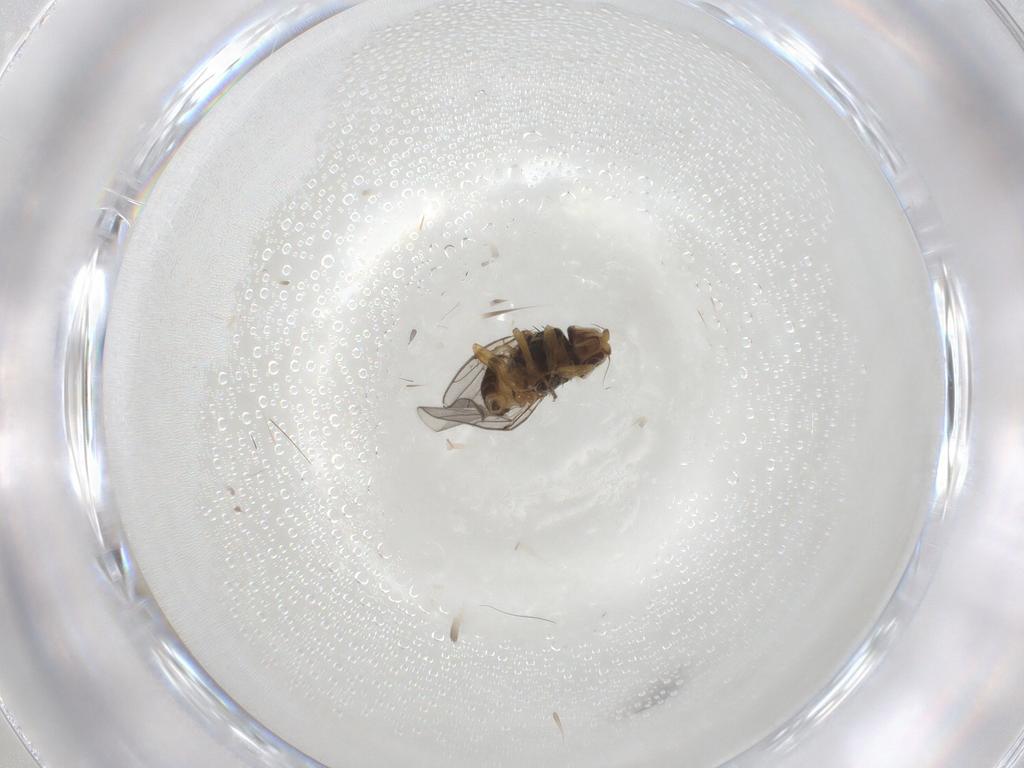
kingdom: Animalia
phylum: Arthropoda
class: Insecta
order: Diptera
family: Chloropidae
